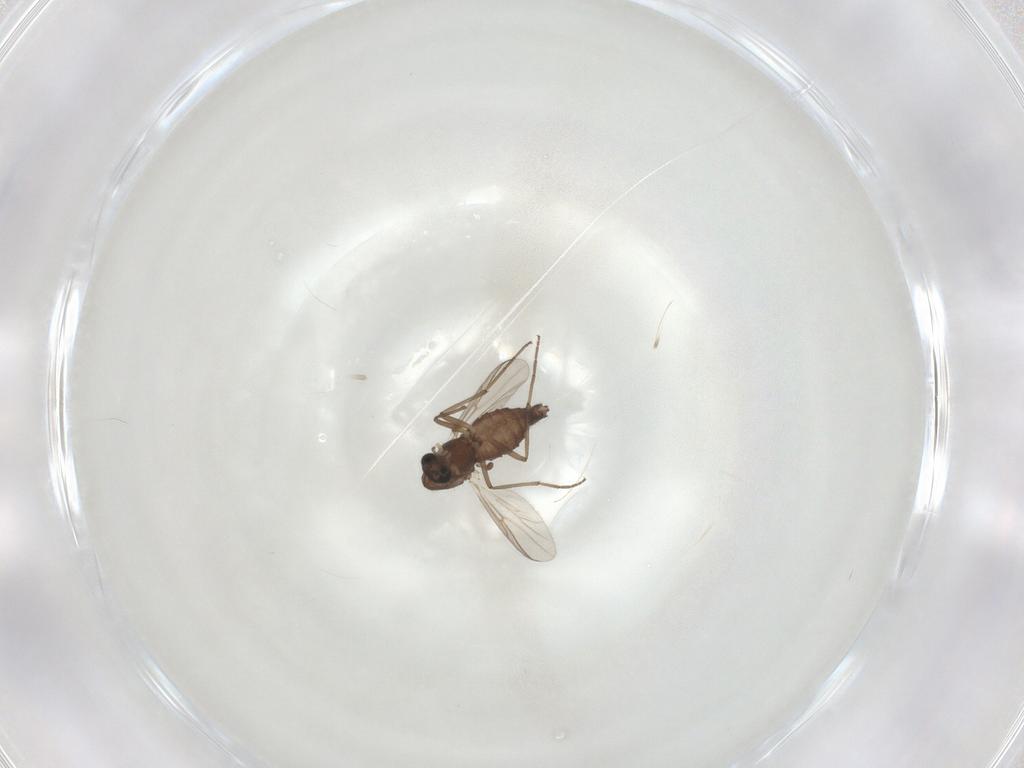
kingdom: Animalia
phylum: Arthropoda
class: Insecta
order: Diptera
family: Chironomidae
